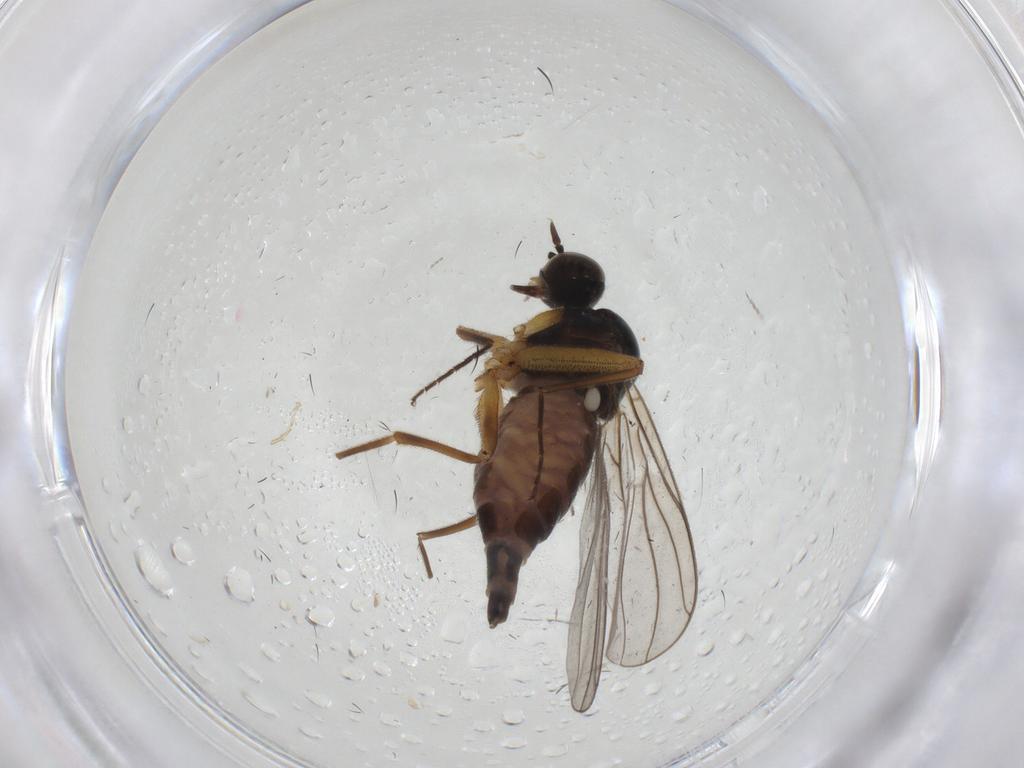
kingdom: Animalia
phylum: Arthropoda
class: Insecta
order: Diptera
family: Hybotidae
